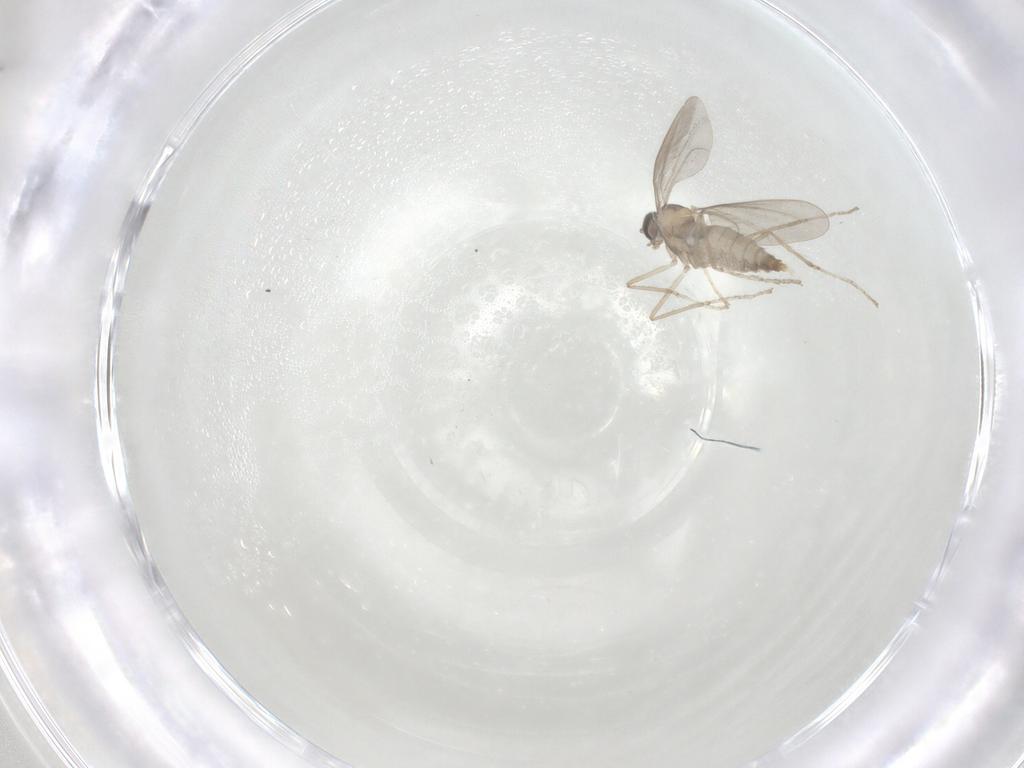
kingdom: Animalia
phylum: Arthropoda
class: Insecta
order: Diptera
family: Cecidomyiidae
